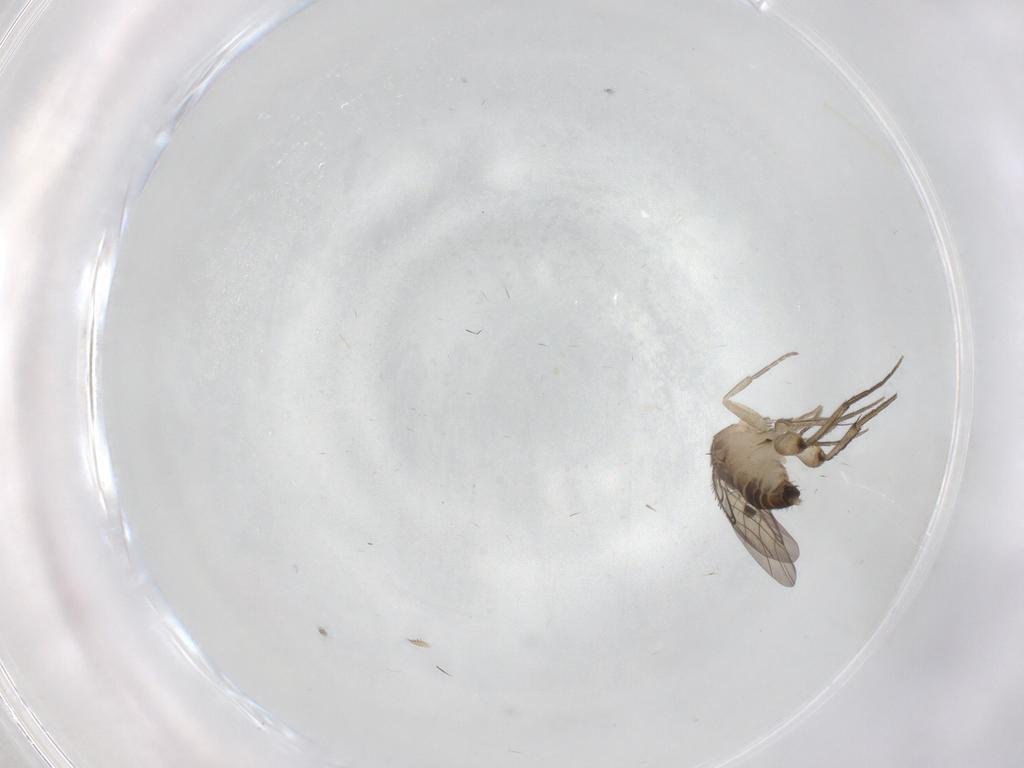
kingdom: Animalia
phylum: Arthropoda
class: Insecta
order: Diptera
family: Phoridae
